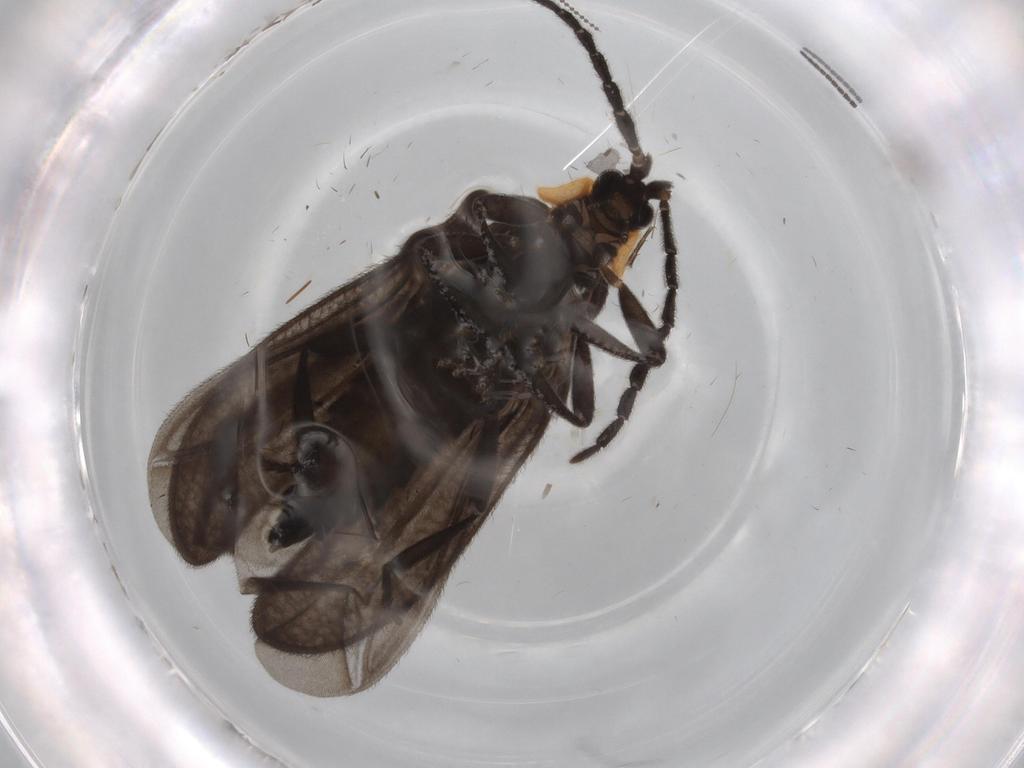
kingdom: Animalia
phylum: Arthropoda
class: Insecta
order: Coleoptera
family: Lycidae
